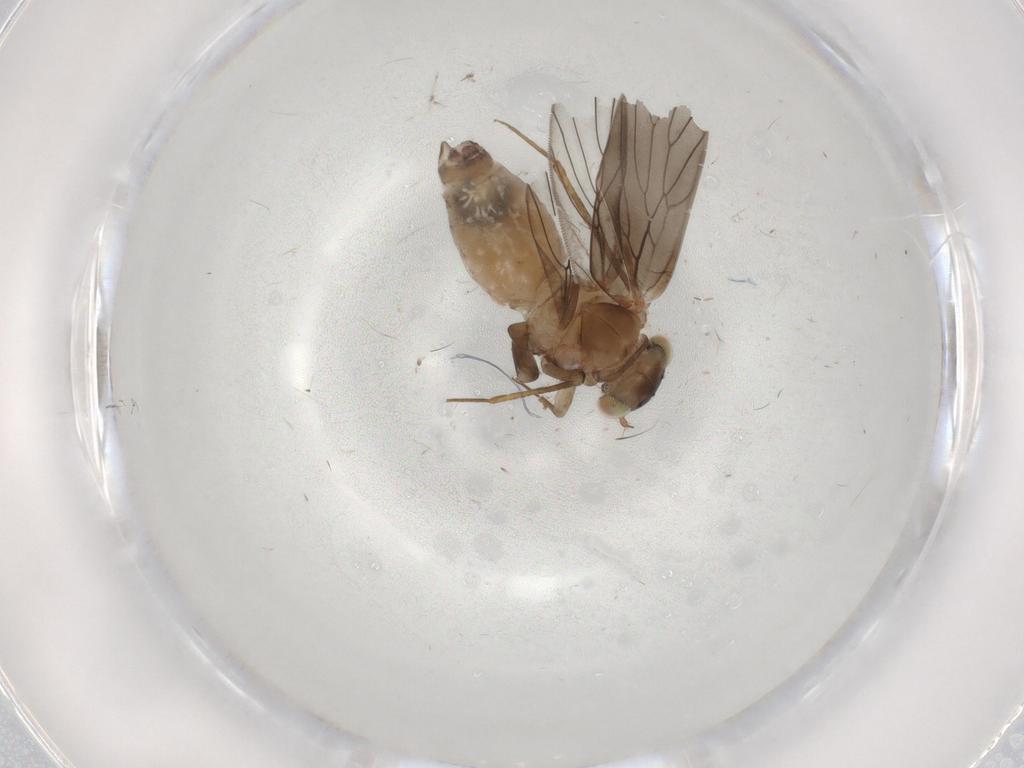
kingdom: Animalia
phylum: Arthropoda
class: Insecta
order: Psocodea
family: Lepidopsocidae
